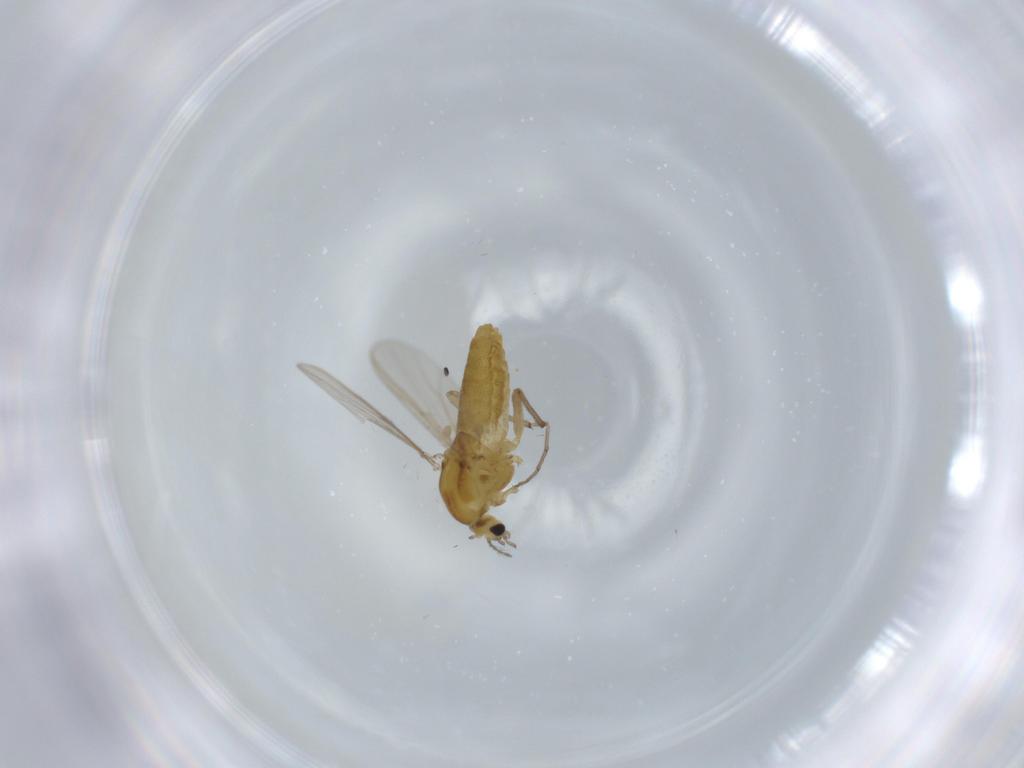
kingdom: Animalia
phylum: Arthropoda
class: Insecta
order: Diptera
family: Chironomidae
